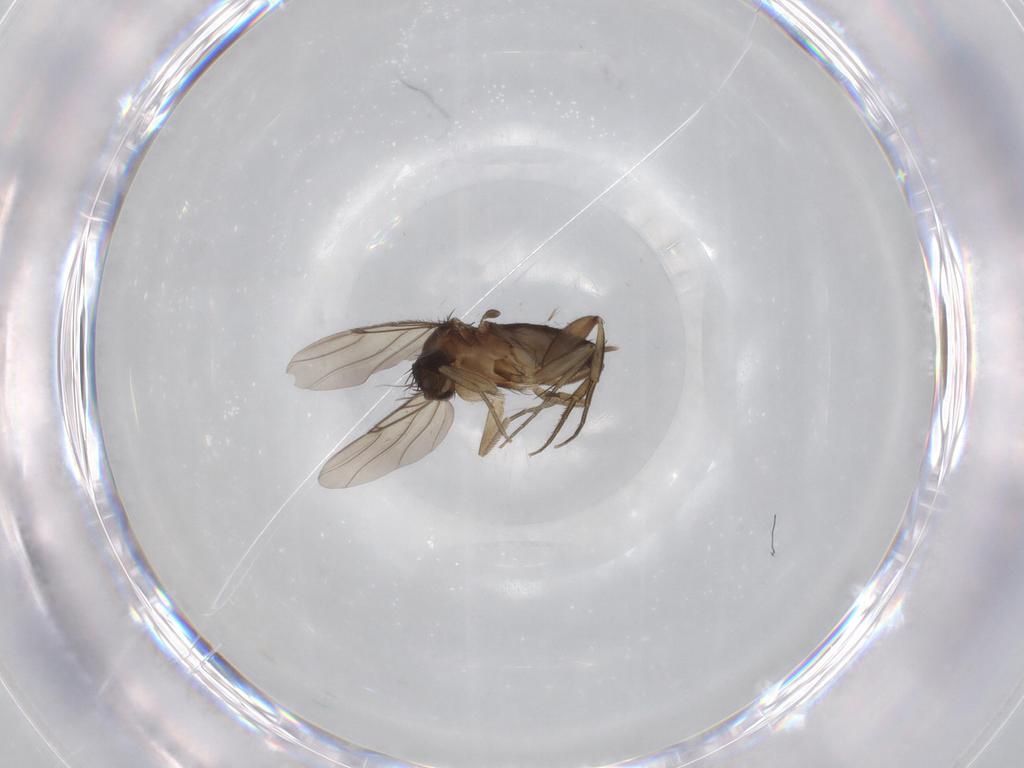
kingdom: Animalia
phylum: Arthropoda
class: Insecta
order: Diptera
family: Phoridae
